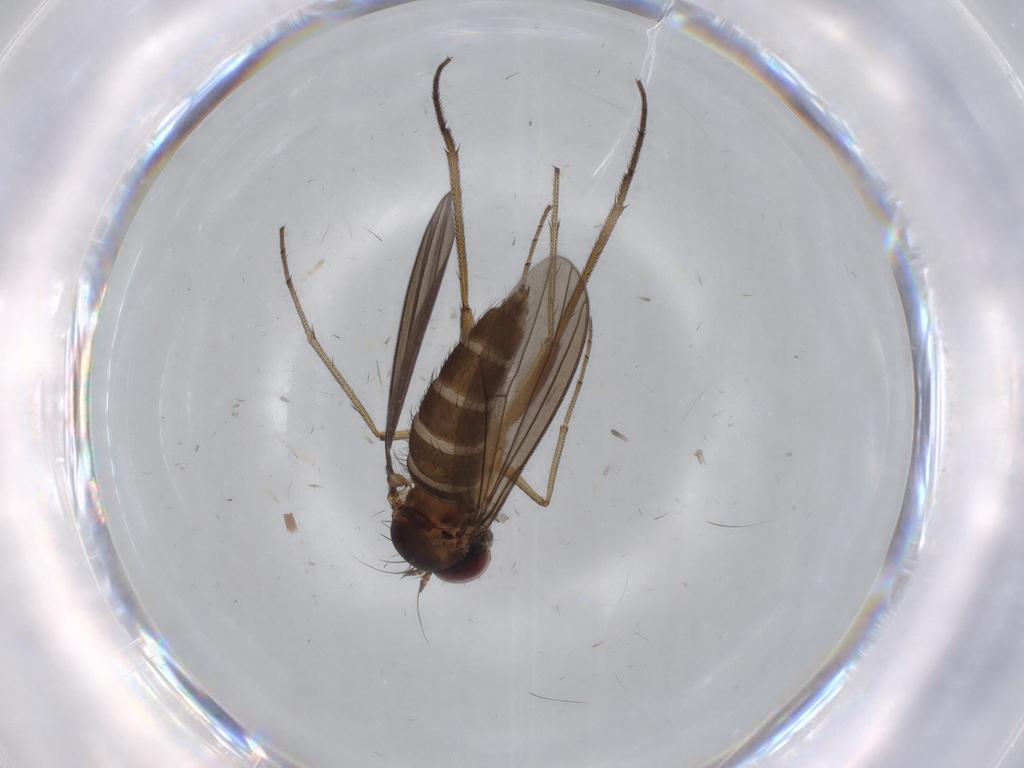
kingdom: Animalia
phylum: Arthropoda
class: Insecta
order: Diptera
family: Dolichopodidae
